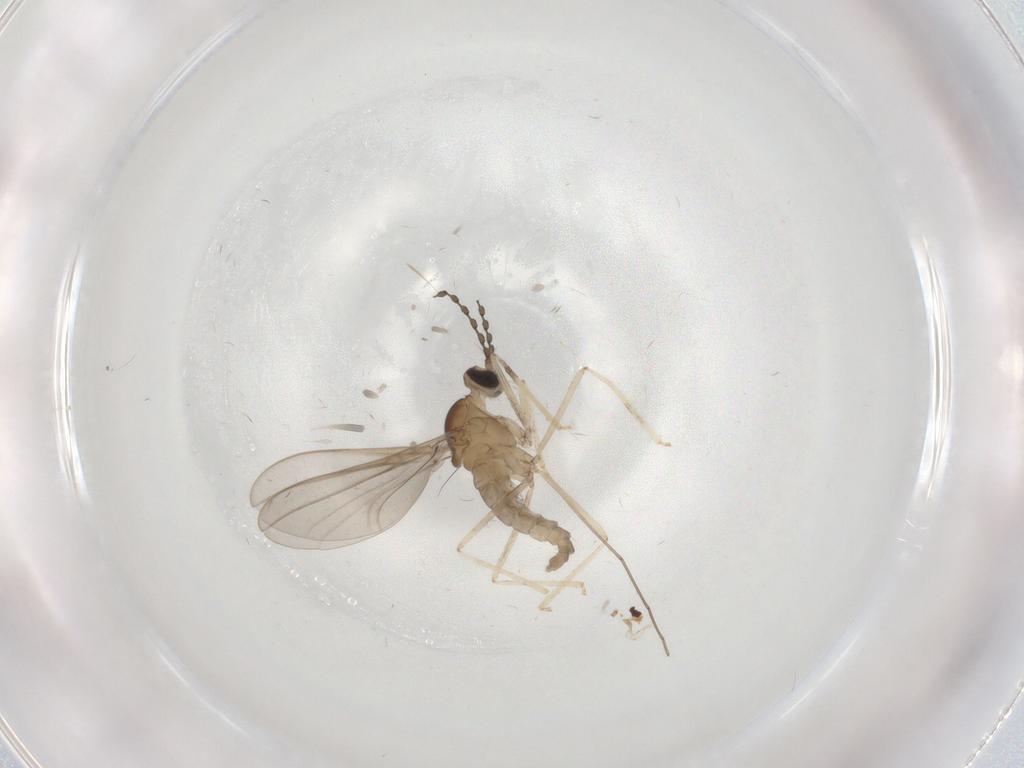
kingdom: Animalia
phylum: Arthropoda
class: Insecta
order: Diptera
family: Cecidomyiidae
